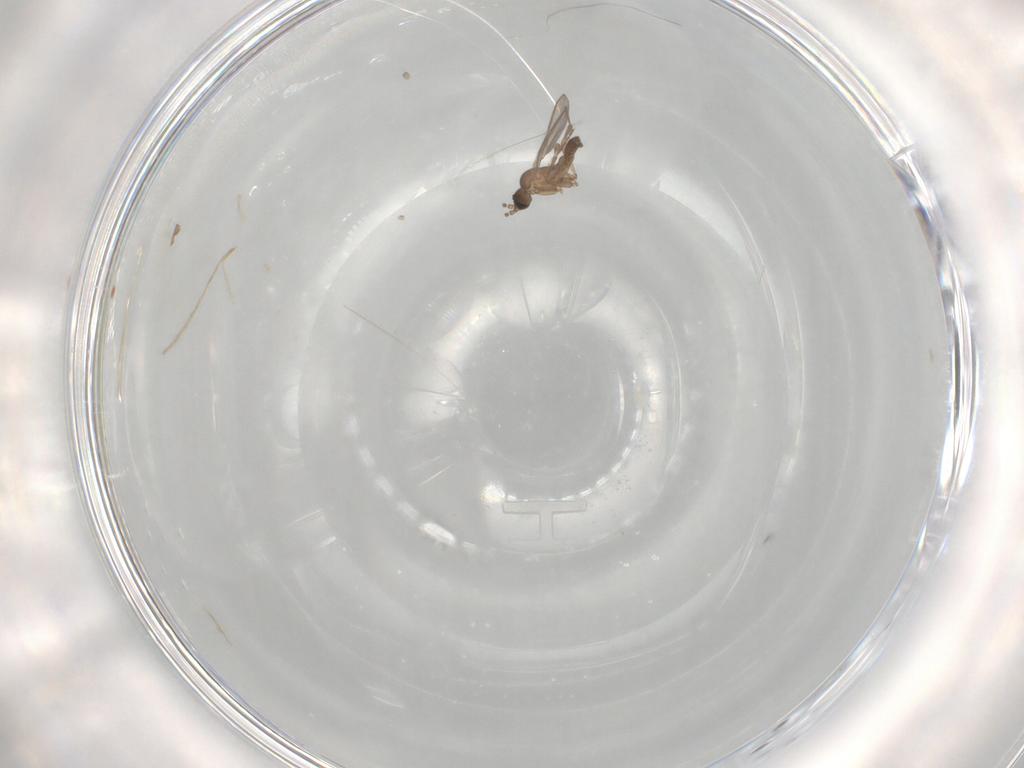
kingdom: Animalia
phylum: Arthropoda
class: Insecta
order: Diptera
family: Sciaridae
